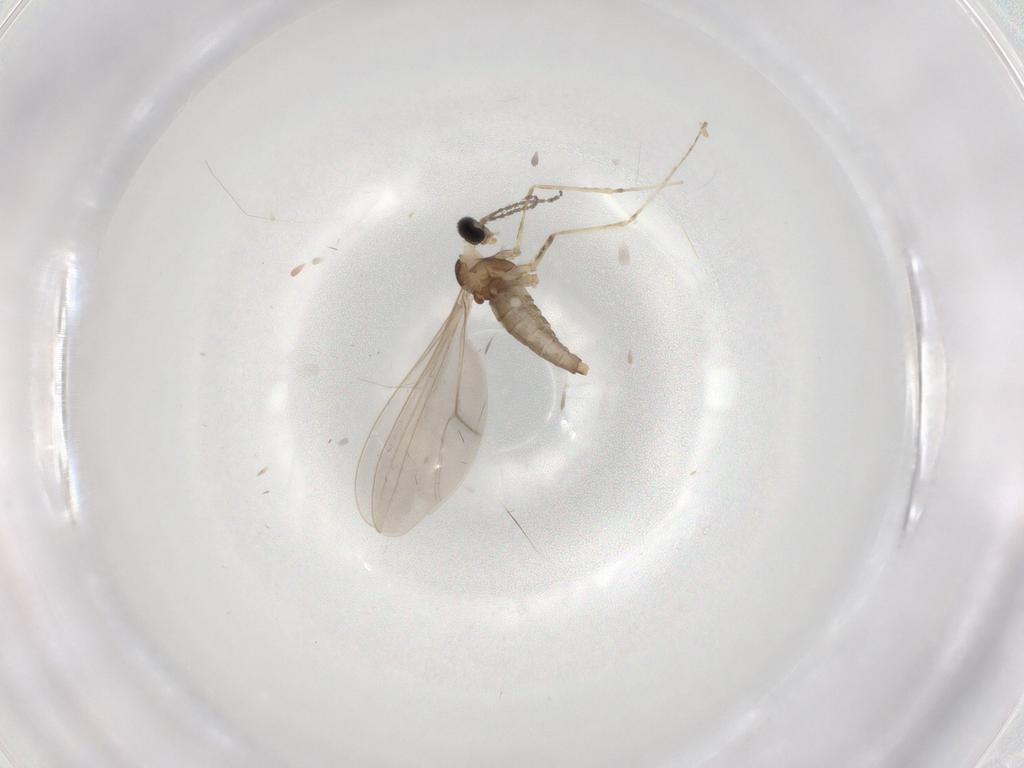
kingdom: Animalia
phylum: Arthropoda
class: Insecta
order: Diptera
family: Cecidomyiidae
